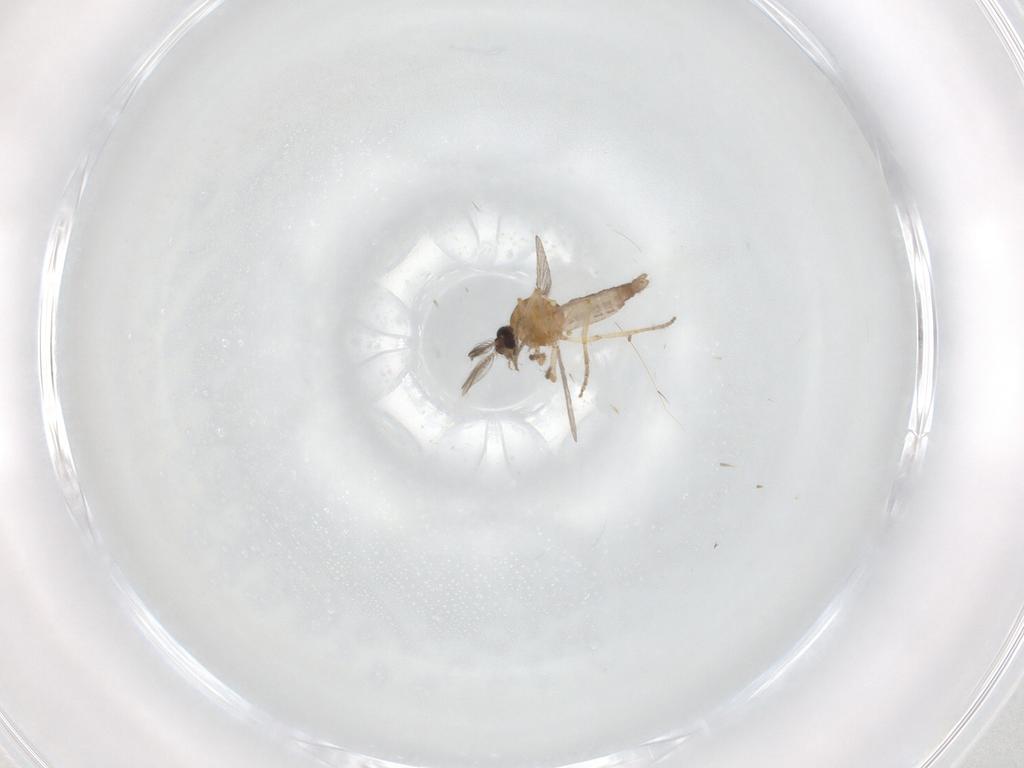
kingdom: Animalia
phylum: Arthropoda
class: Insecta
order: Diptera
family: Ceratopogonidae
